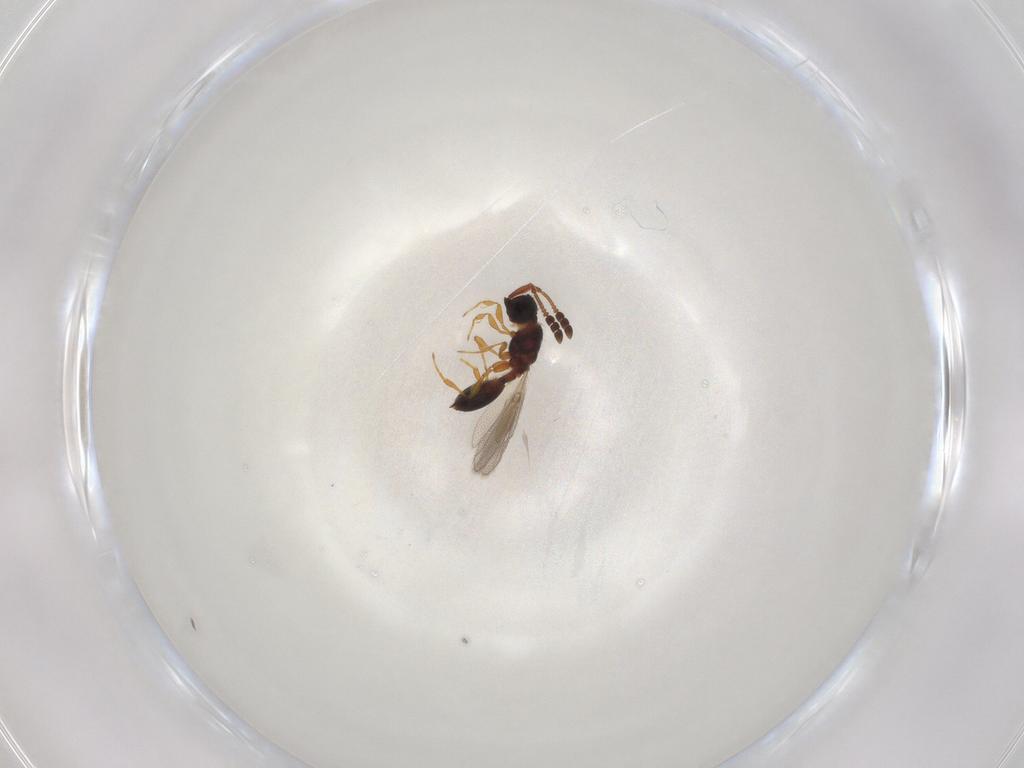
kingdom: Animalia
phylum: Arthropoda
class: Insecta
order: Hymenoptera
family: Diapriidae
